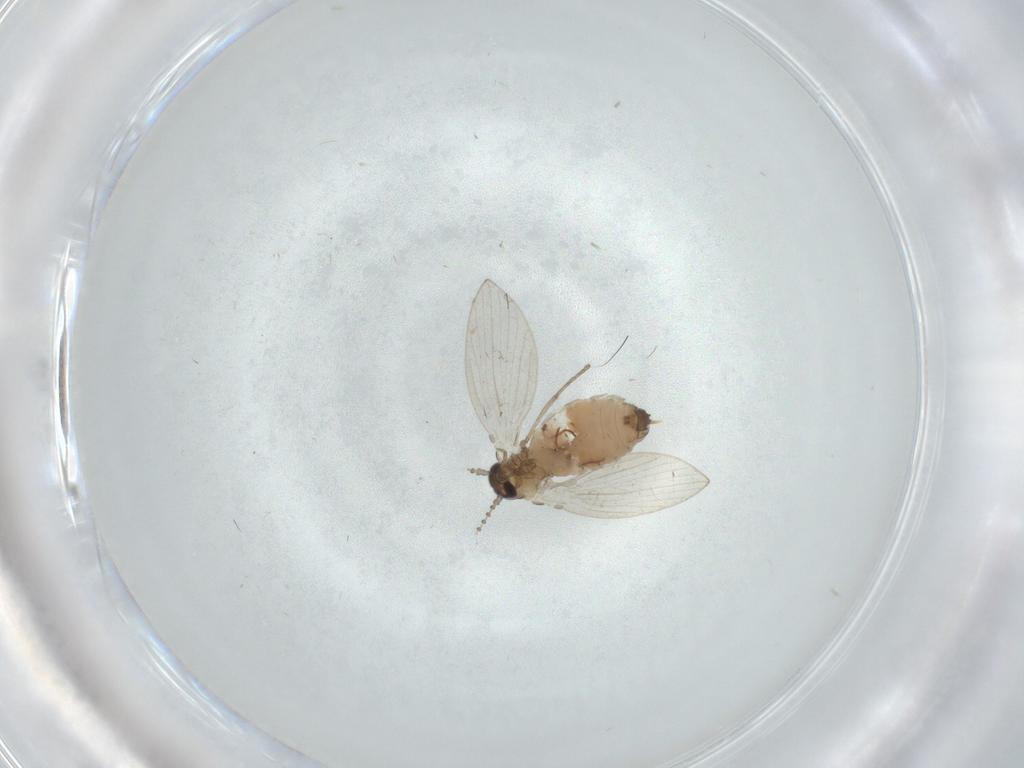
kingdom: Animalia
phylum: Arthropoda
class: Insecta
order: Diptera
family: Psychodidae
